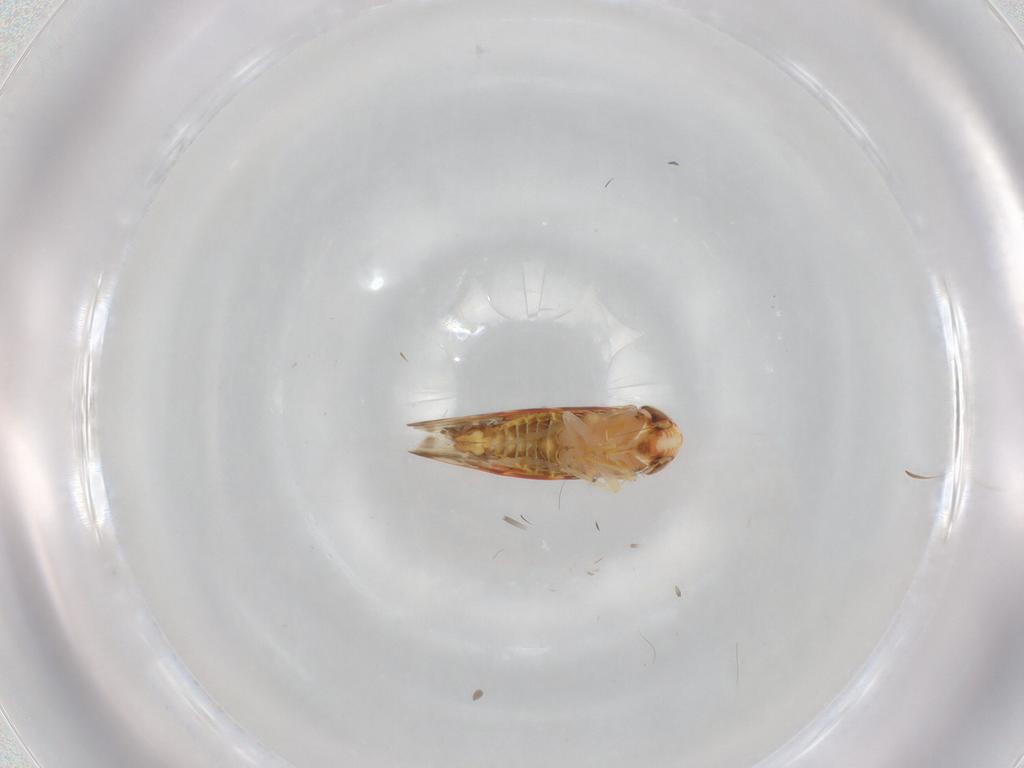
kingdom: Animalia
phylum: Arthropoda
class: Insecta
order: Hemiptera
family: Cicadellidae
